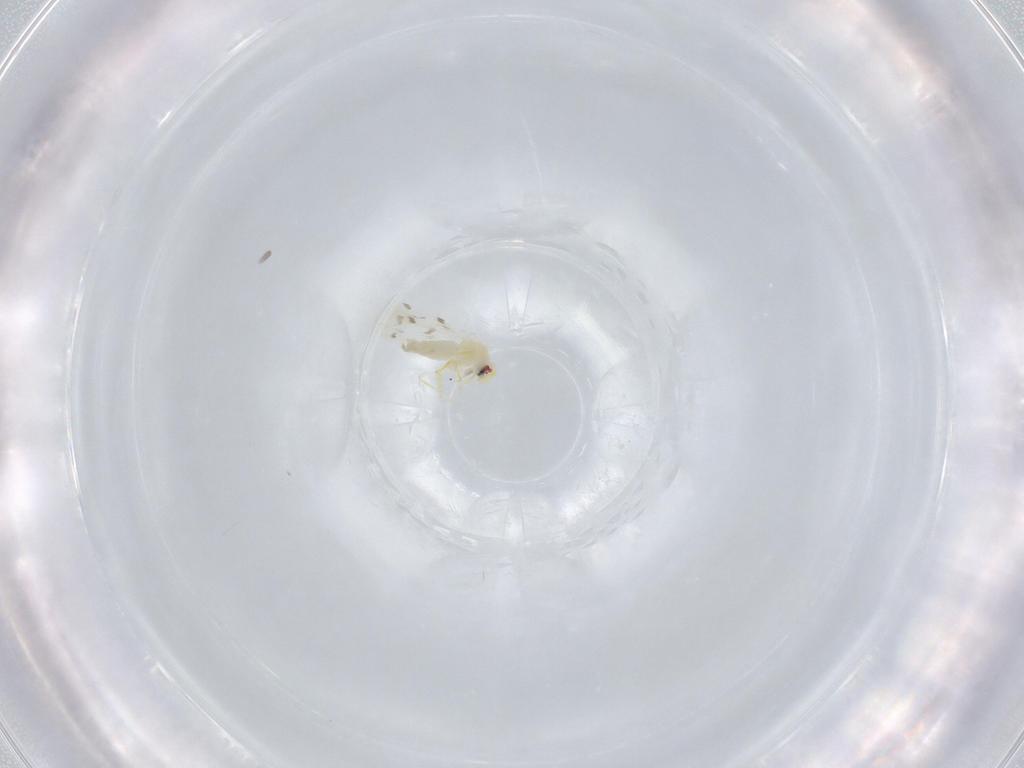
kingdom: Animalia
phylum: Arthropoda
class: Insecta
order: Hemiptera
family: Aleyrodidae
